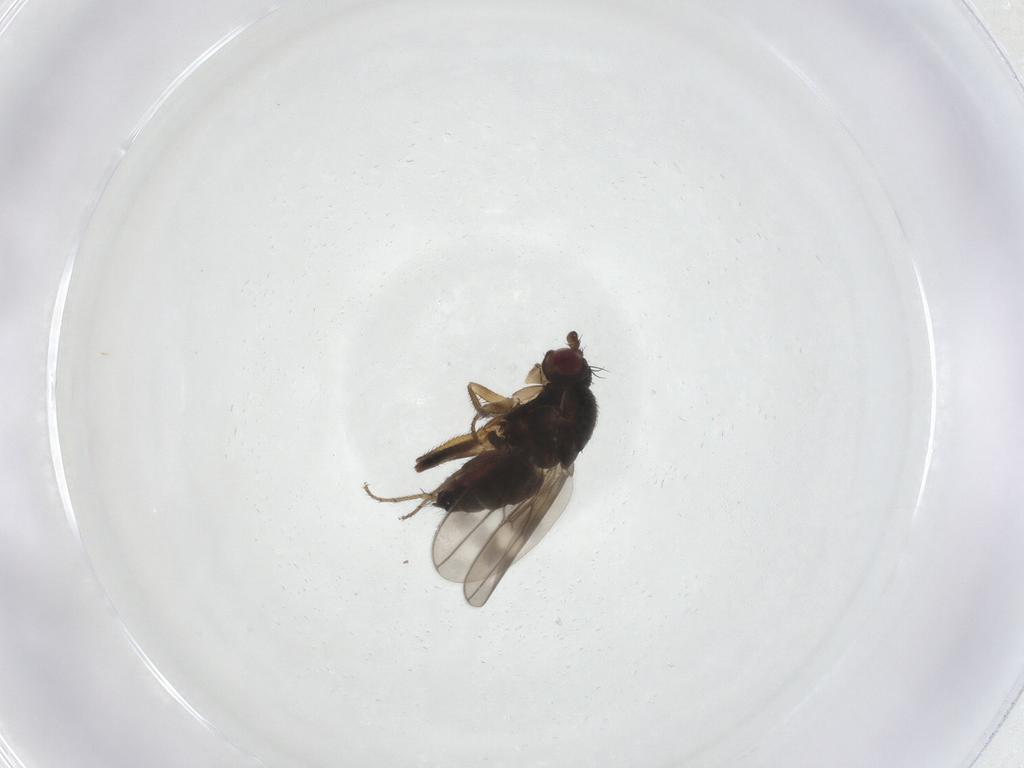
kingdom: Animalia
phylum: Arthropoda
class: Insecta
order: Diptera
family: Sphaeroceridae
